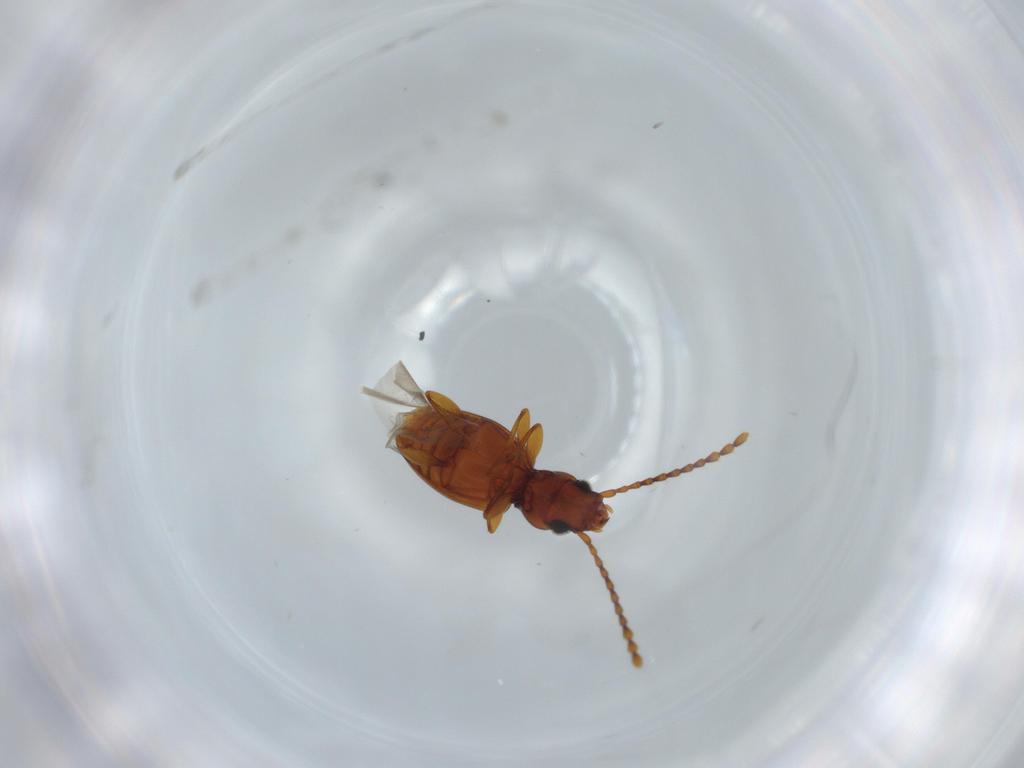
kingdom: Animalia
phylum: Arthropoda
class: Insecta
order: Coleoptera
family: Laemophloeidae
